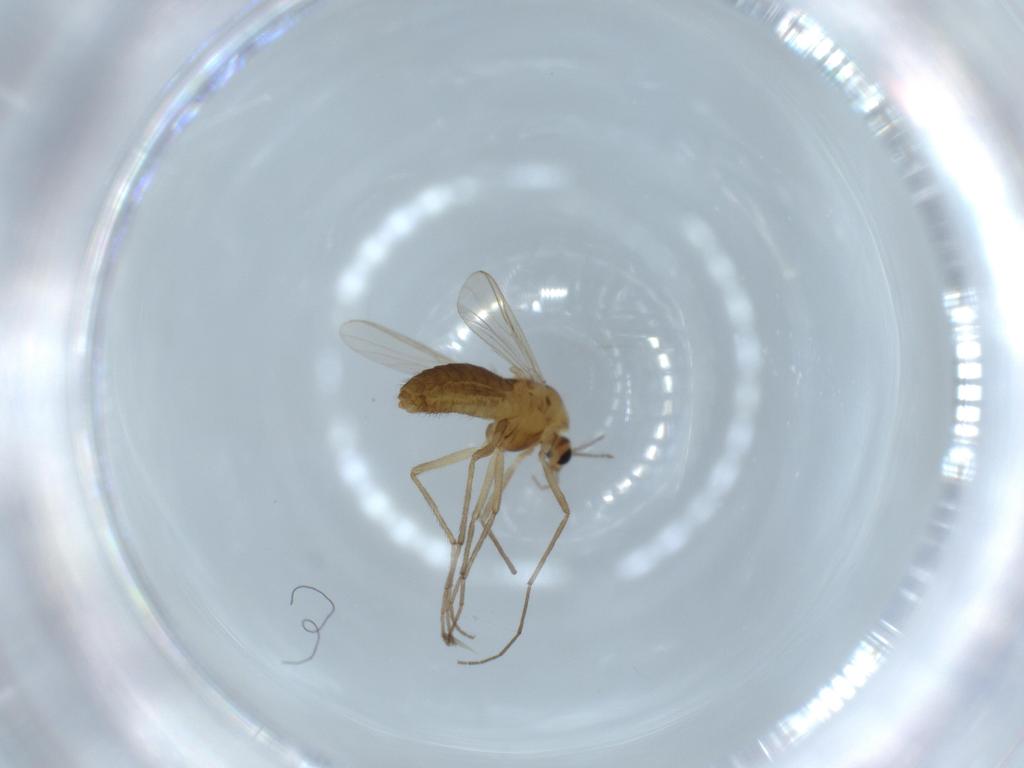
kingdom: Animalia
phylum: Arthropoda
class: Insecta
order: Diptera
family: Chironomidae
